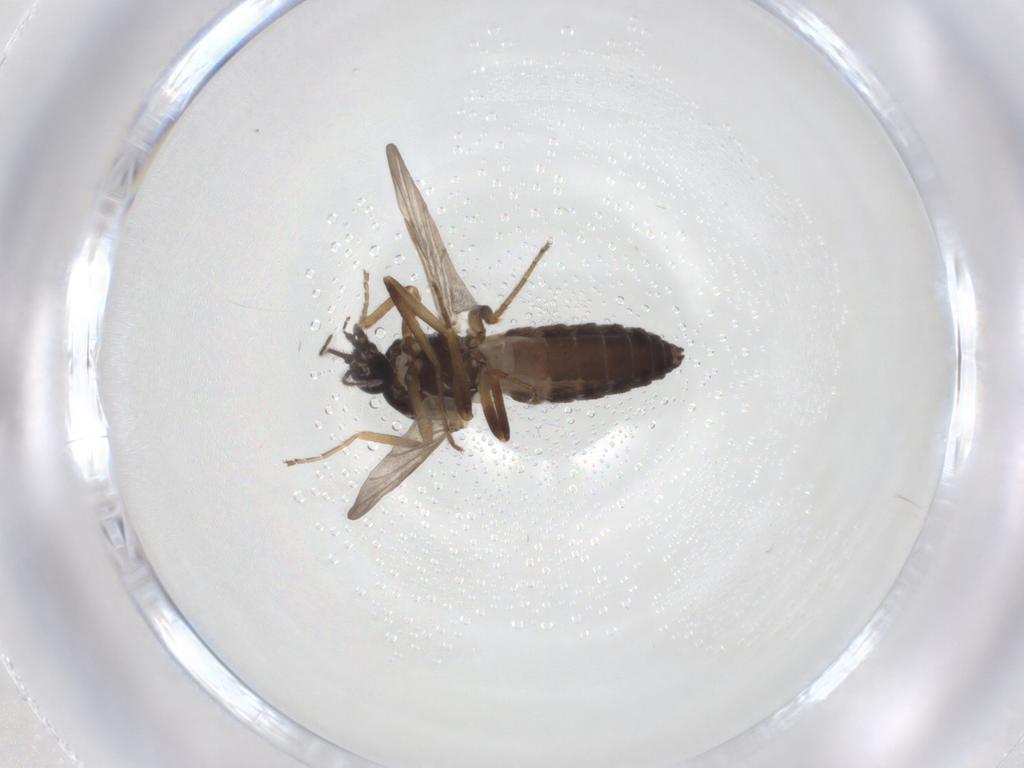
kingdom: Animalia
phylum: Arthropoda
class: Insecta
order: Diptera
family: Ceratopogonidae
